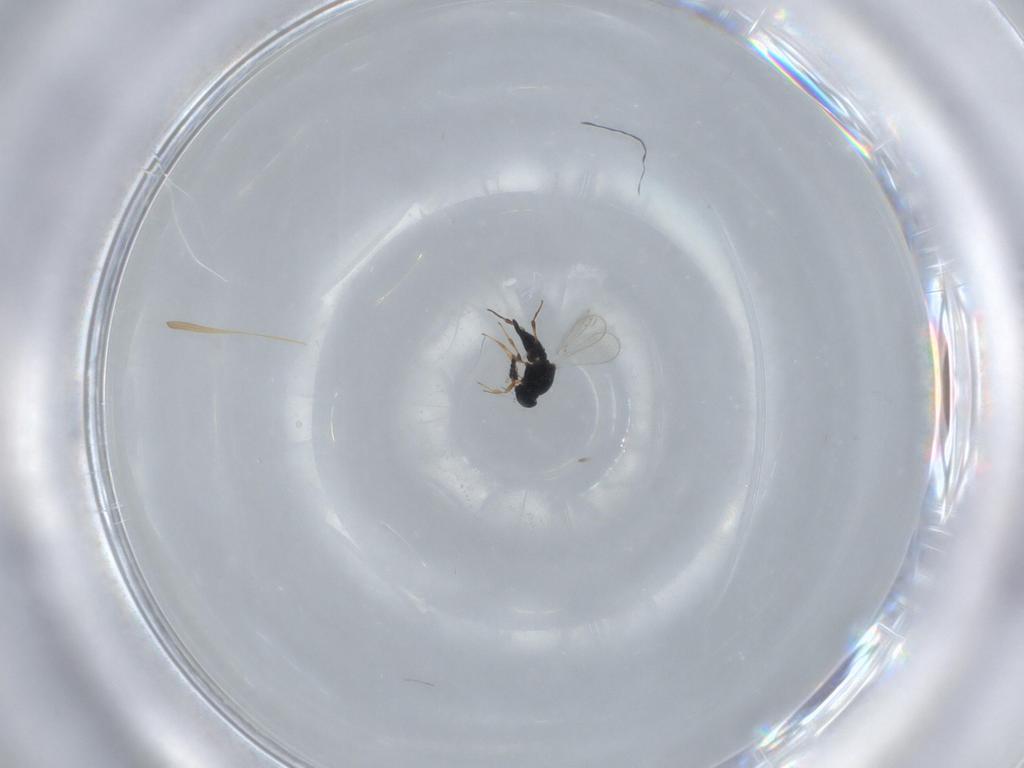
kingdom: Animalia
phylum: Arthropoda
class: Insecta
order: Hymenoptera
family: Platygastridae
